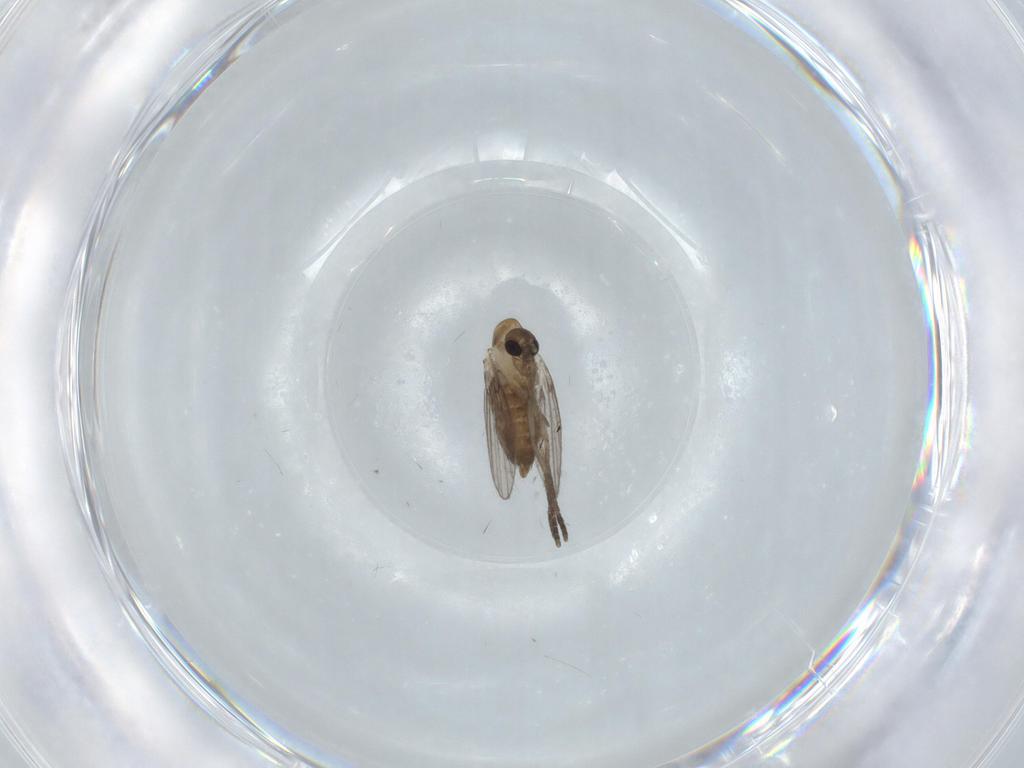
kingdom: Animalia
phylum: Arthropoda
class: Insecta
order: Diptera
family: Psychodidae
